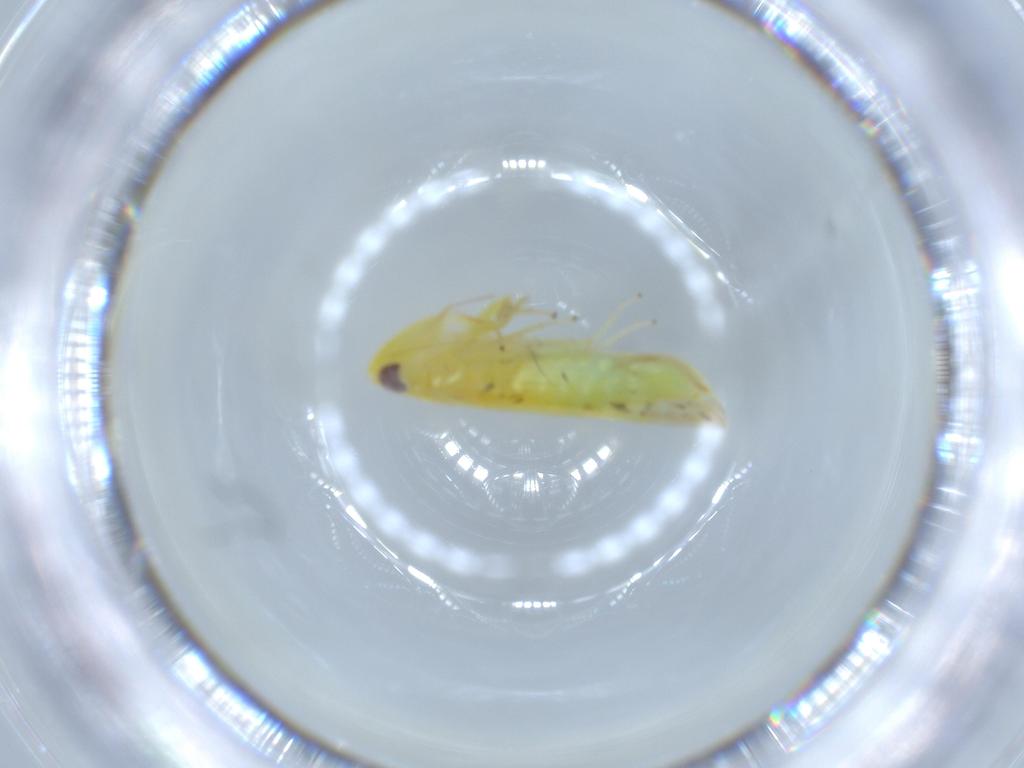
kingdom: Animalia
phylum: Arthropoda
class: Insecta
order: Hemiptera
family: Cicadellidae
